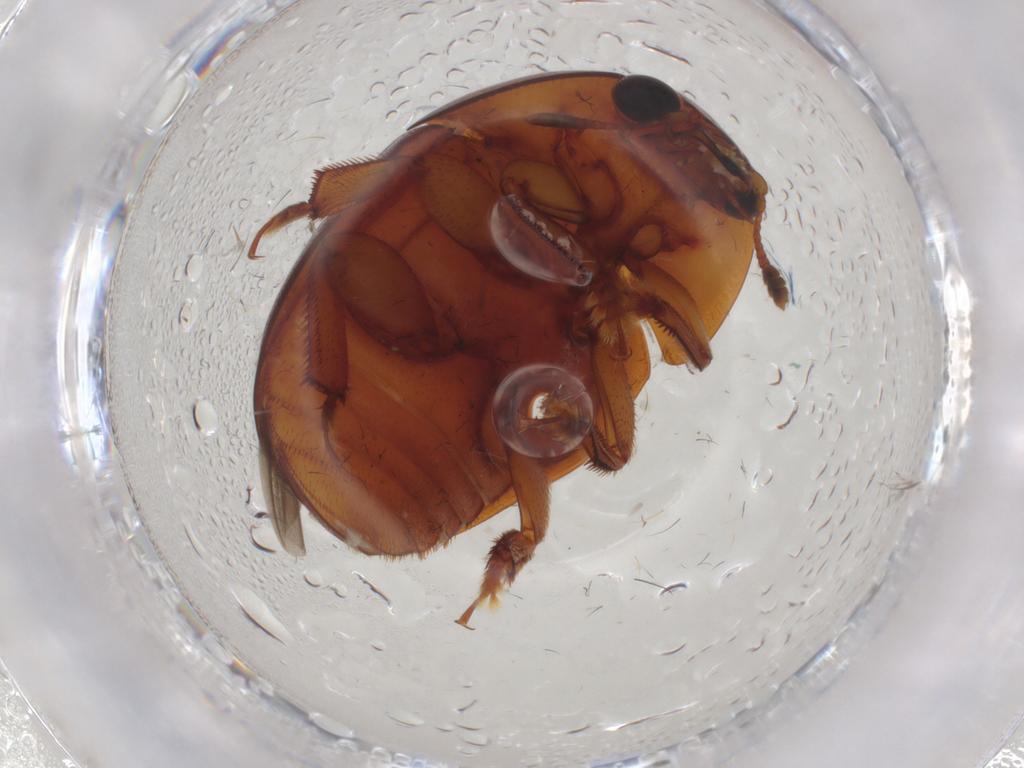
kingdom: Animalia
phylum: Arthropoda
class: Insecta
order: Coleoptera
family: Nitidulidae
